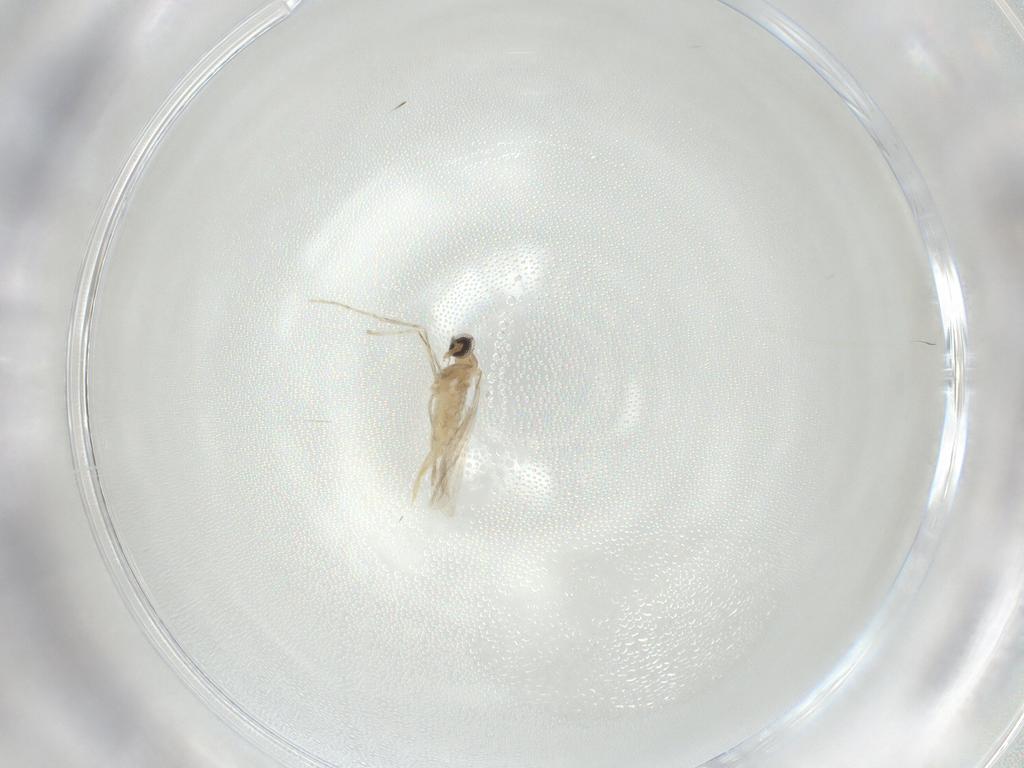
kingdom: Animalia
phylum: Arthropoda
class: Insecta
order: Diptera
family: Cecidomyiidae
